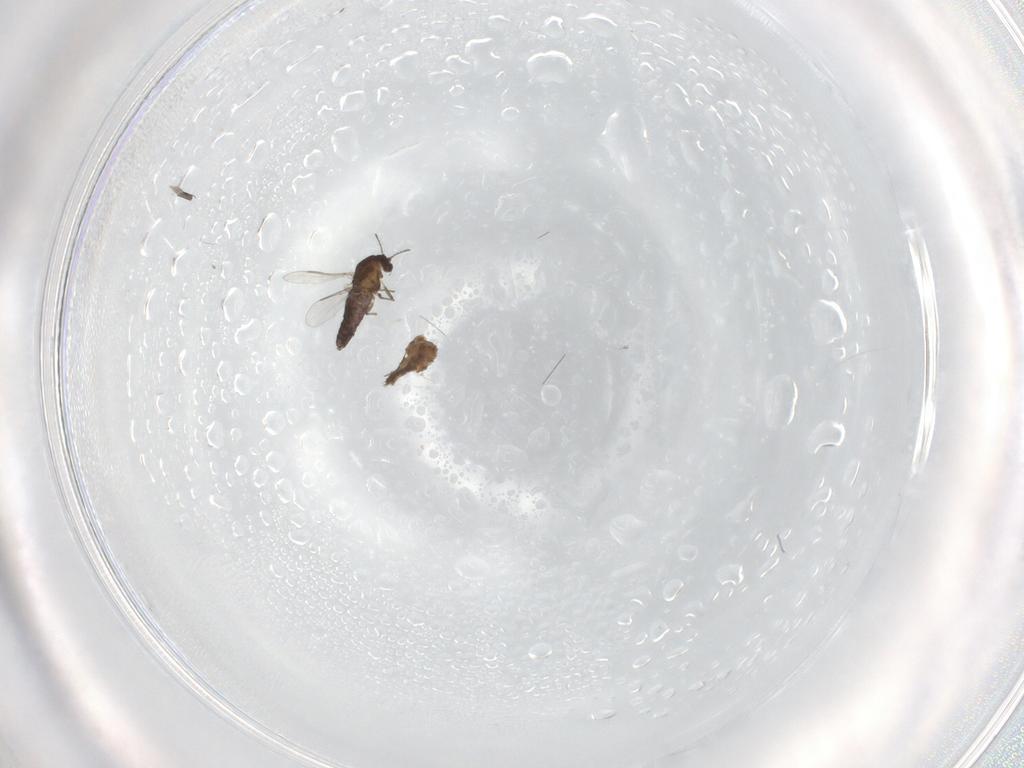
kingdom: Animalia
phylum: Arthropoda
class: Insecta
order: Diptera
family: Chironomidae
